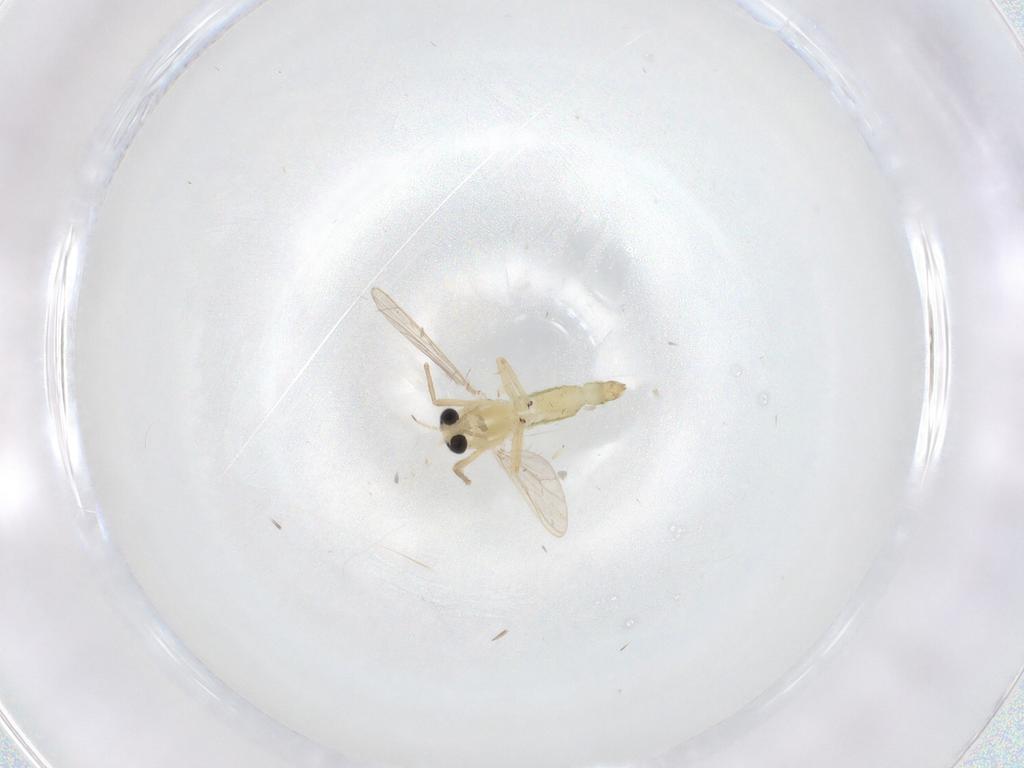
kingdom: Animalia
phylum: Arthropoda
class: Insecta
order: Diptera
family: Chironomidae
